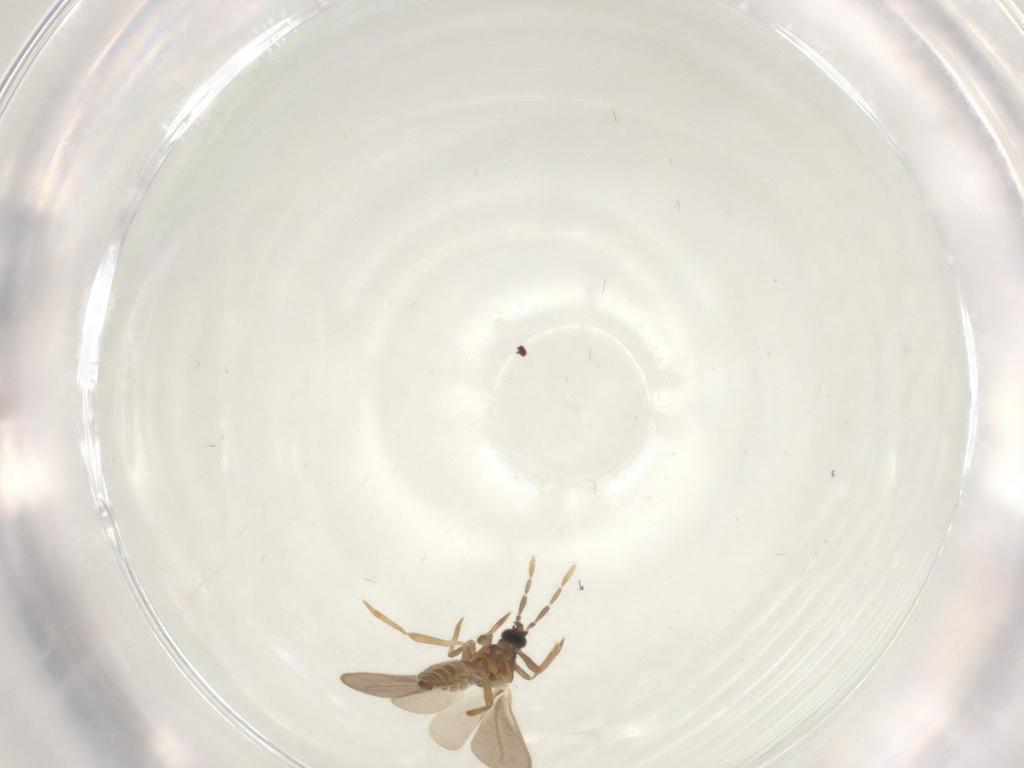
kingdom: Animalia
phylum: Arthropoda
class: Insecta
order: Hemiptera
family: Enicocephalidae
